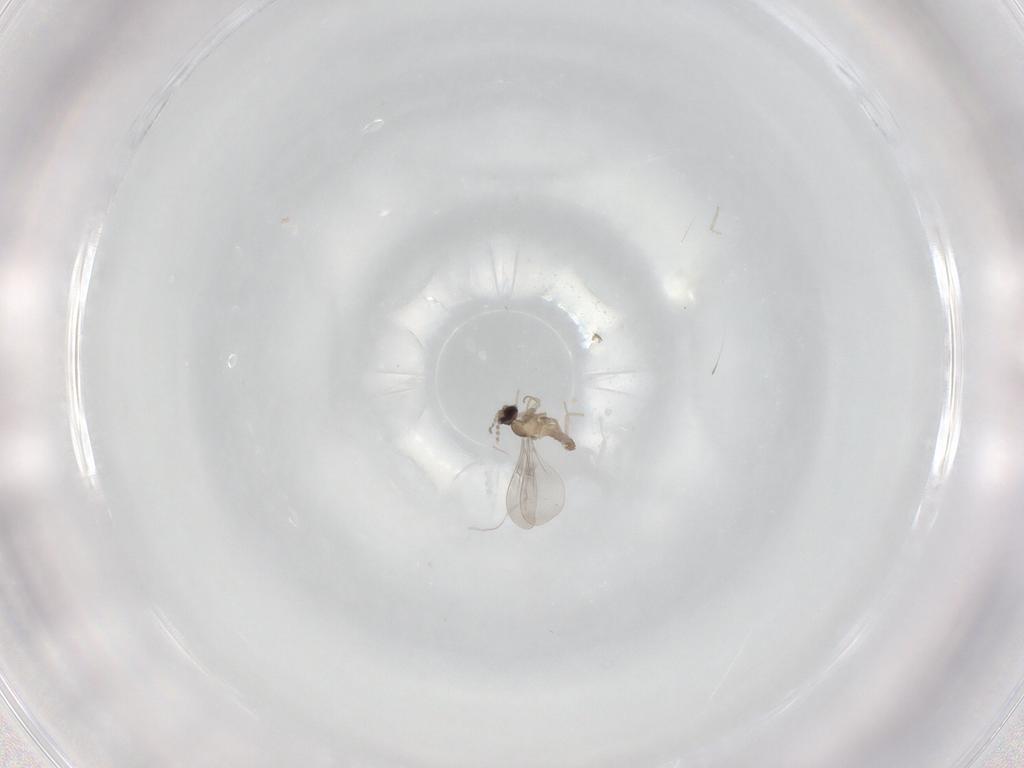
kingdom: Animalia
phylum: Arthropoda
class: Insecta
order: Diptera
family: Cecidomyiidae
